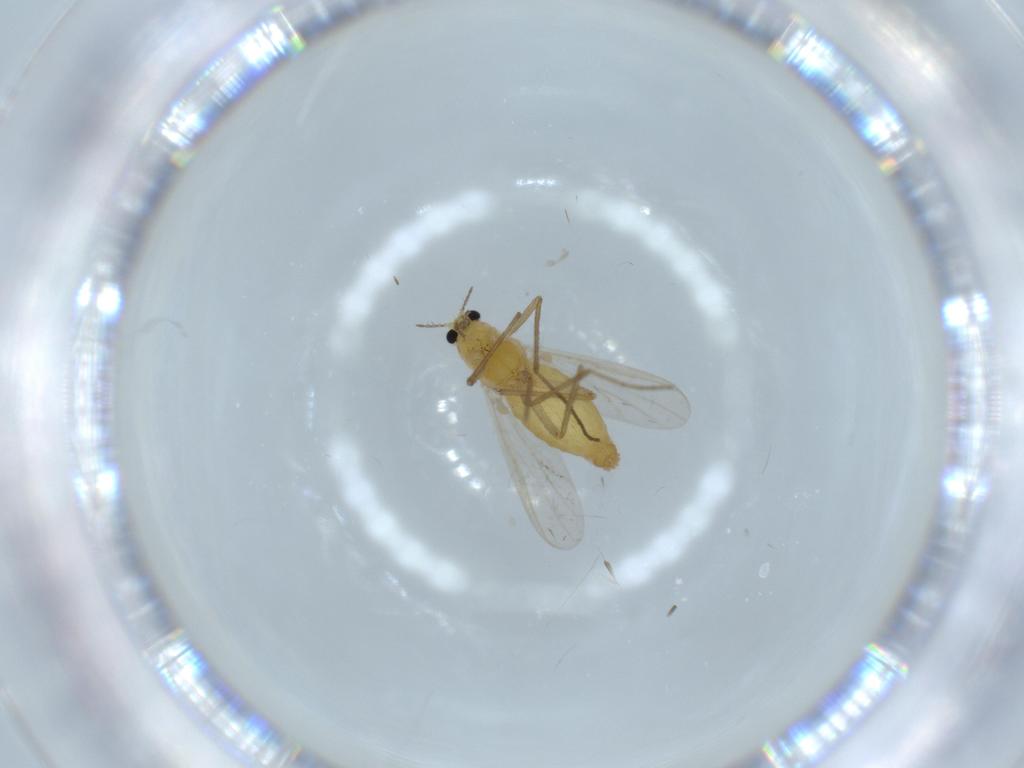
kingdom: Animalia
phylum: Arthropoda
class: Insecta
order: Diptera
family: Chironomidae
